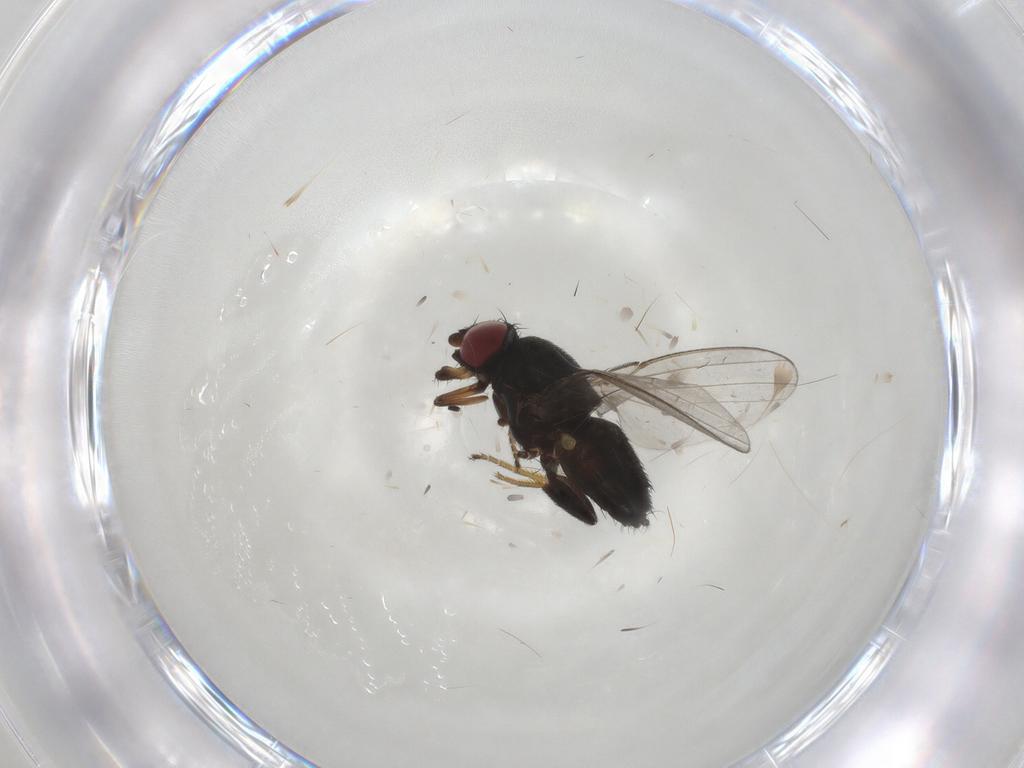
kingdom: Animalia
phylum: Arthropoda
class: Insecta
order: Diptera
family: Milichiidae
